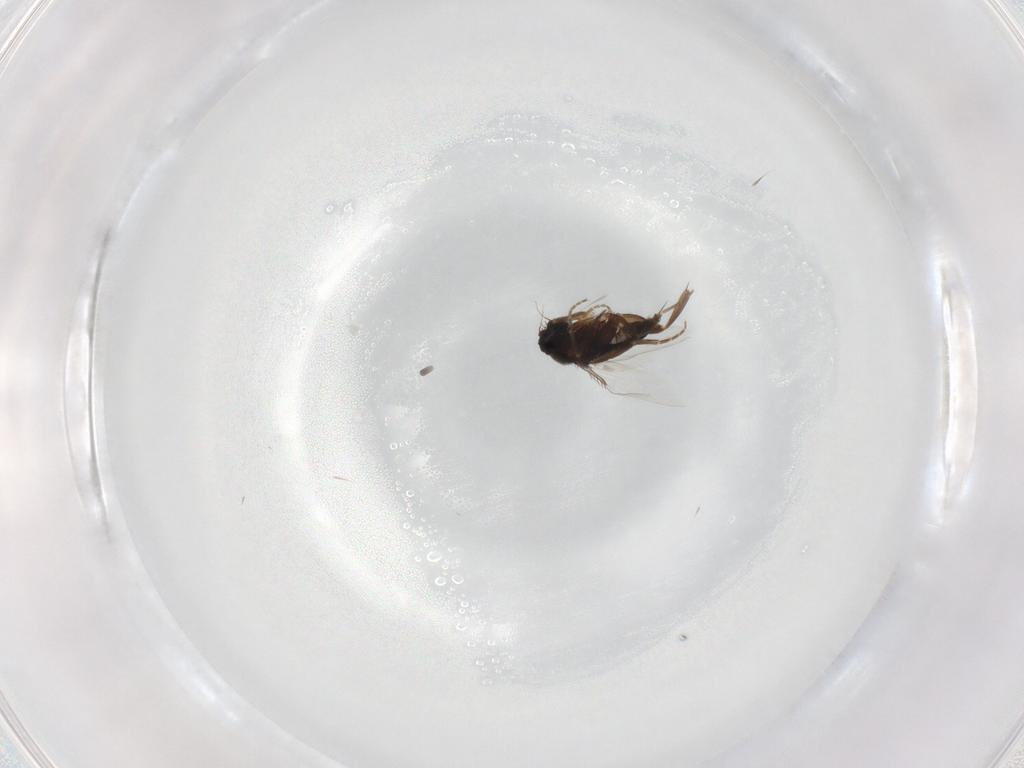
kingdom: Animalia
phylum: Arthropoda
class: Insecta
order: Diptera
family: Phoridae
